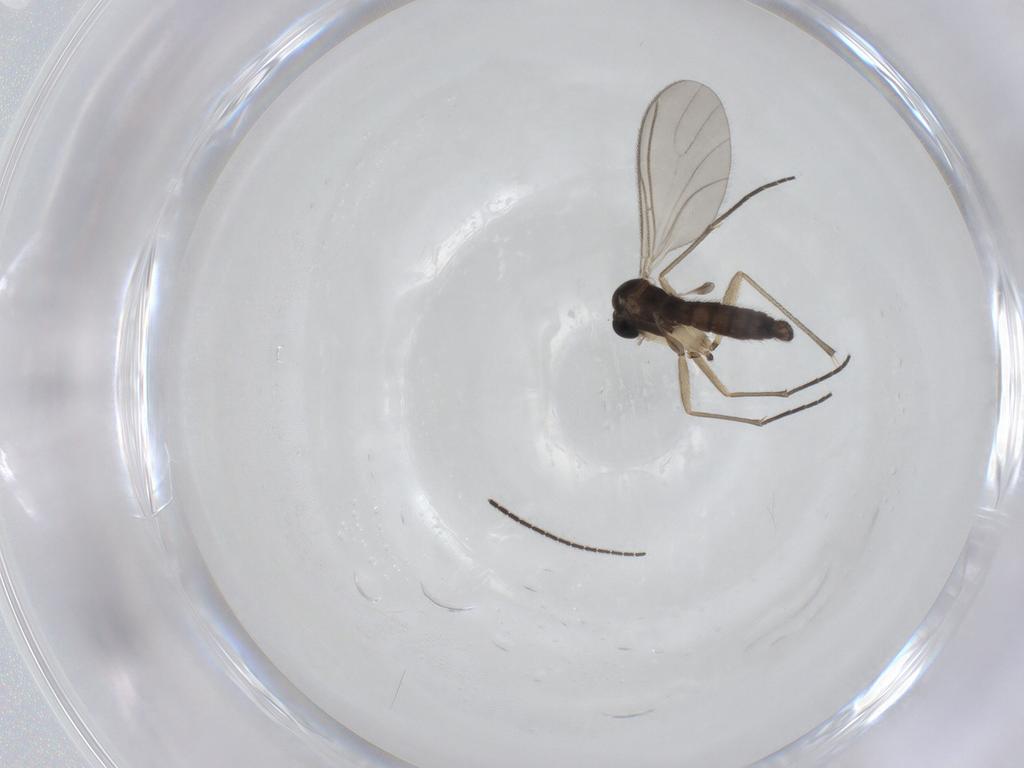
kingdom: Animalia
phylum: Arthropoda
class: Insecta
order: Diptera
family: Sciaridae
